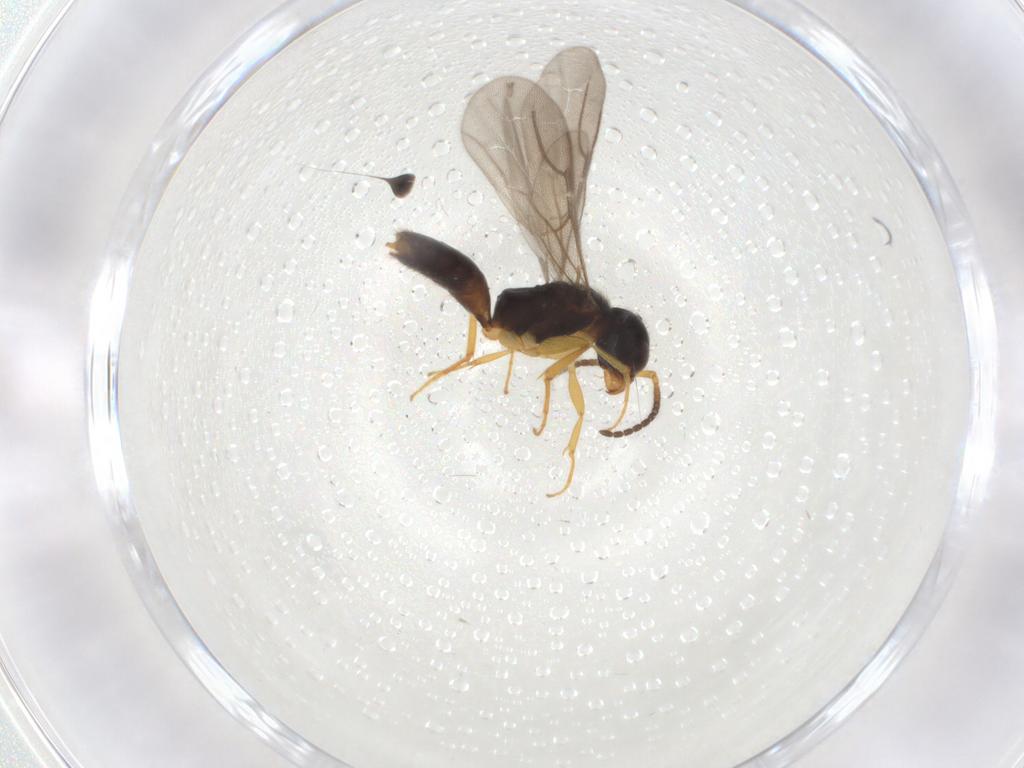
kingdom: Animalia
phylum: Arthropoda
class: Insecta
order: Hymenoptera
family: Bethylidae
